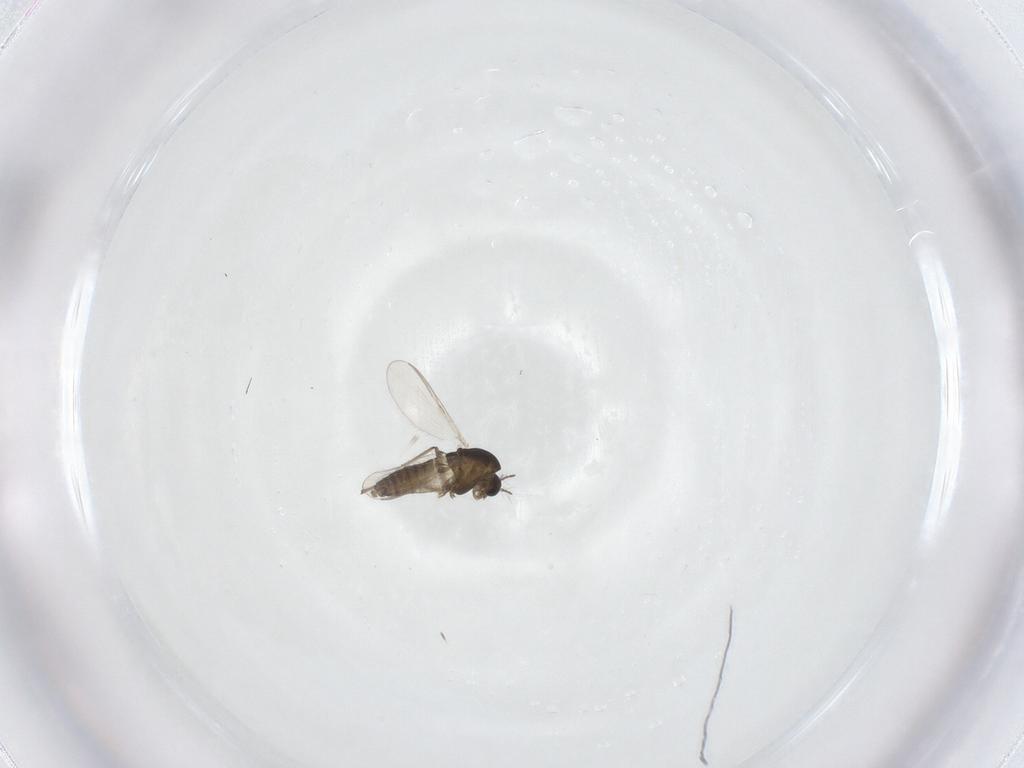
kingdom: Animalia
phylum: Arthropoda
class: Insecta
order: Diptera
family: Chironomidae
